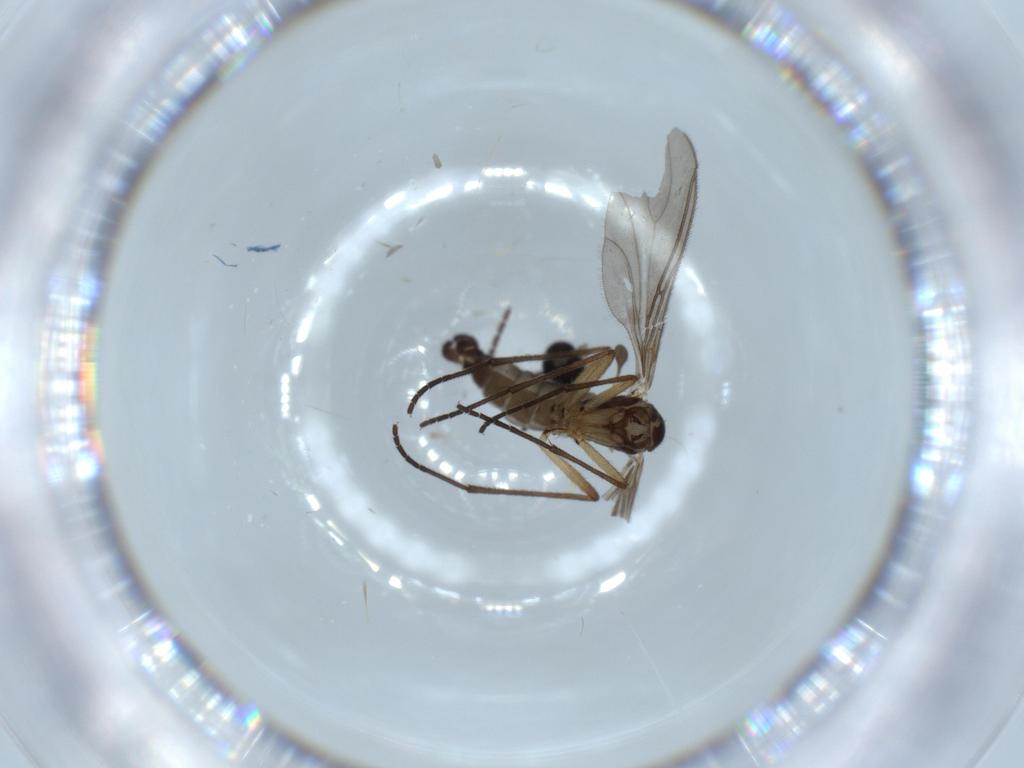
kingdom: Animalia
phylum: Arthropoda
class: Insecta
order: Diptera
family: Sciaridae
